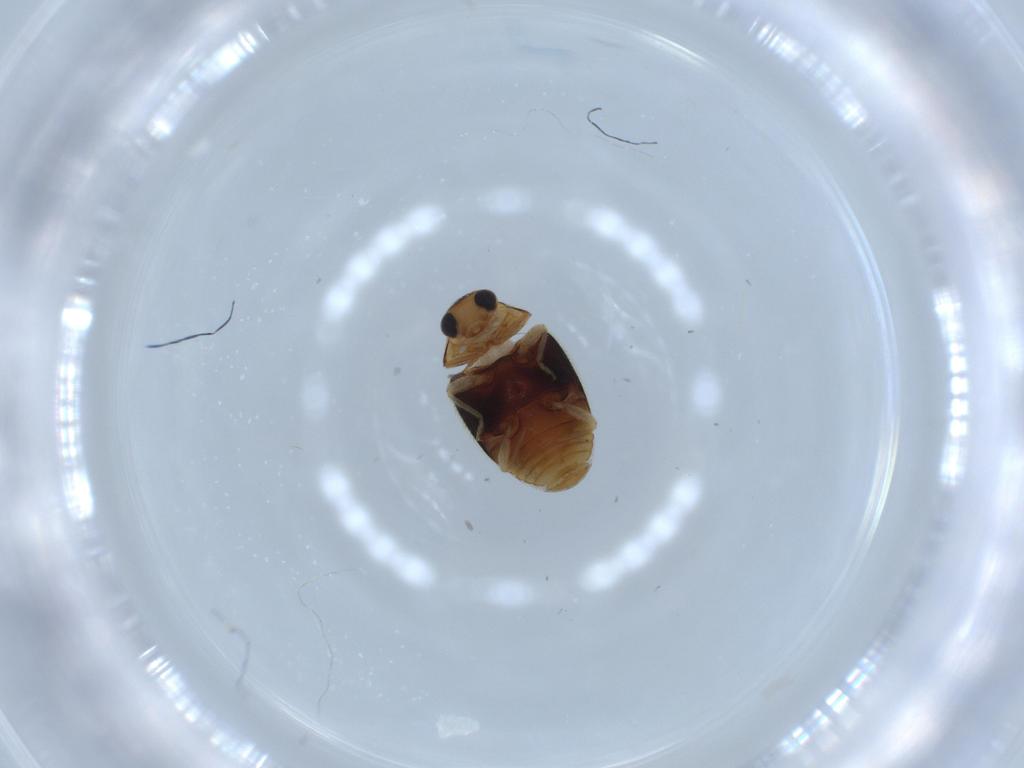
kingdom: Animalia
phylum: Arthropoda
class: Insecta
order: Coleoptera
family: Coccinellidae
